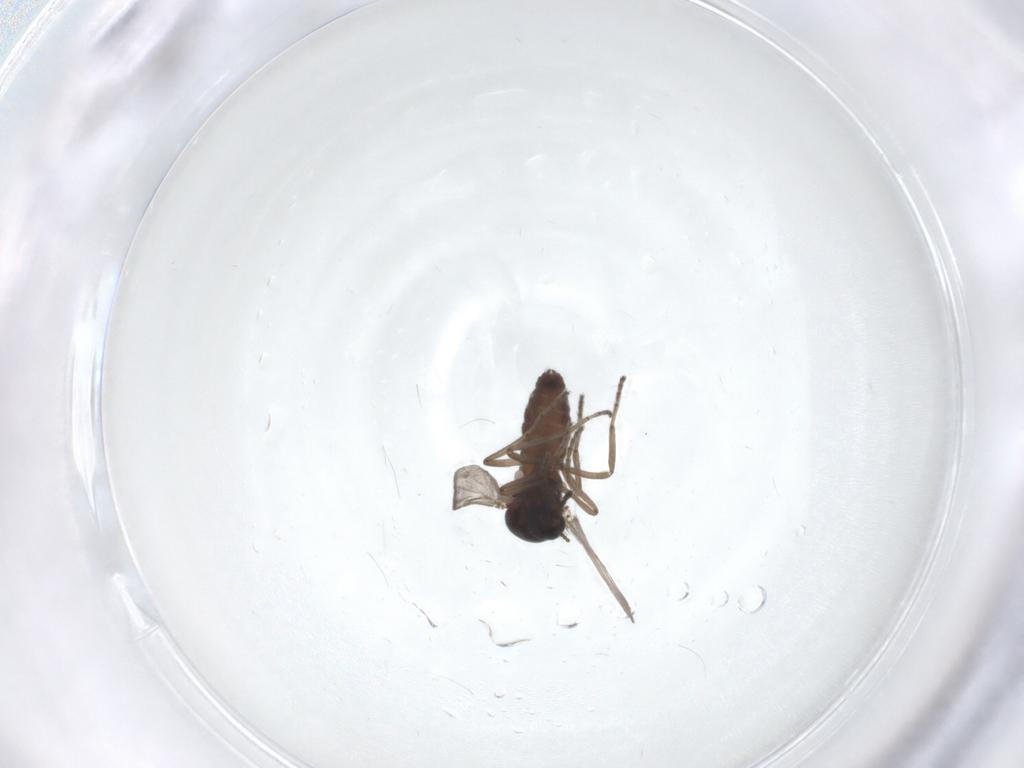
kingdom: Animalia
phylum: Arthropoda
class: Insecta
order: Diptera
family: Ceratopogonidae
